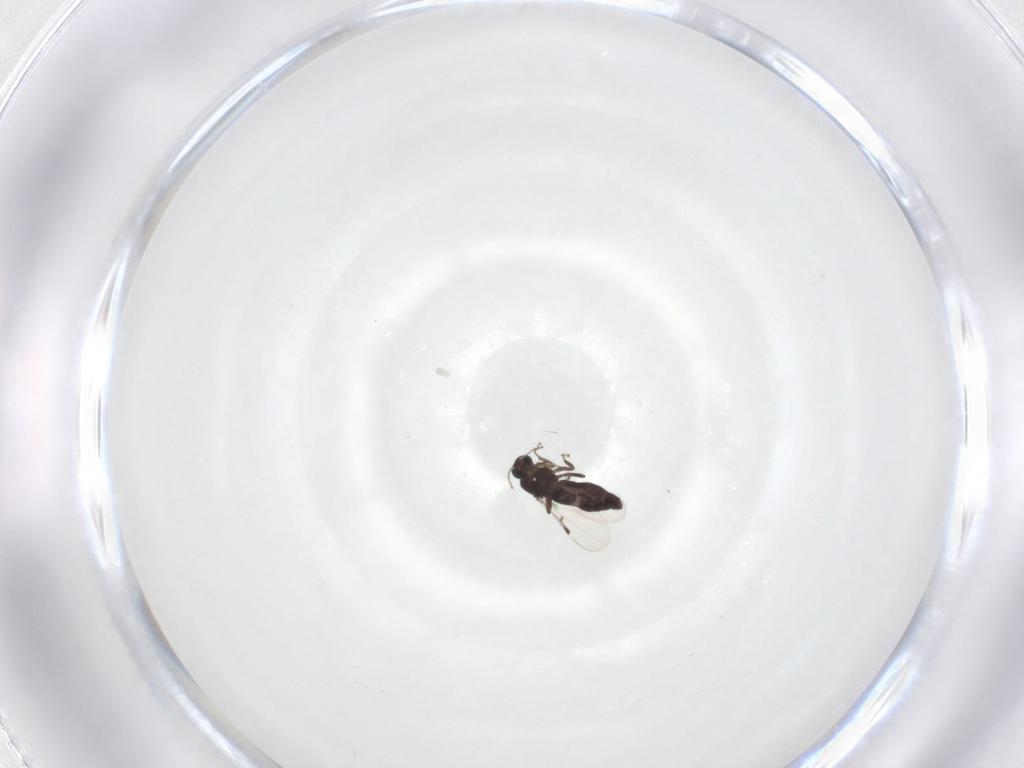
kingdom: Animalia
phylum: Arthropoda
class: Insecta
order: Diptera
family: Ceratopogonidae
